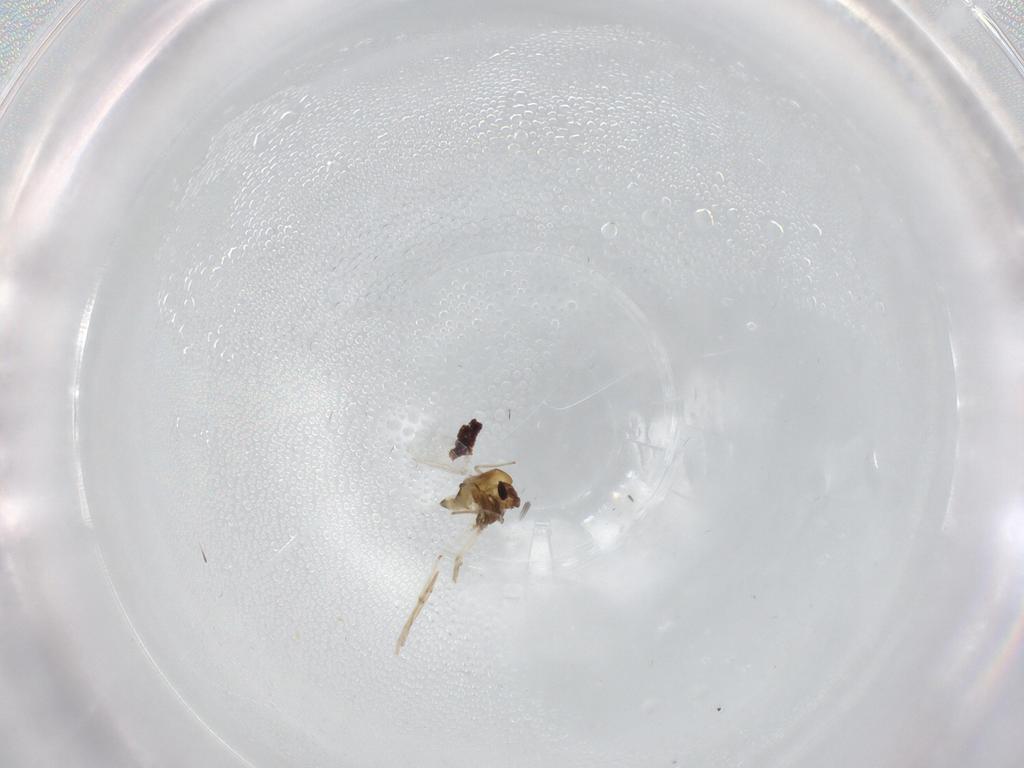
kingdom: Animalia
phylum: Arthropoda
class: Insecta
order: Diptera
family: Chironomidae
